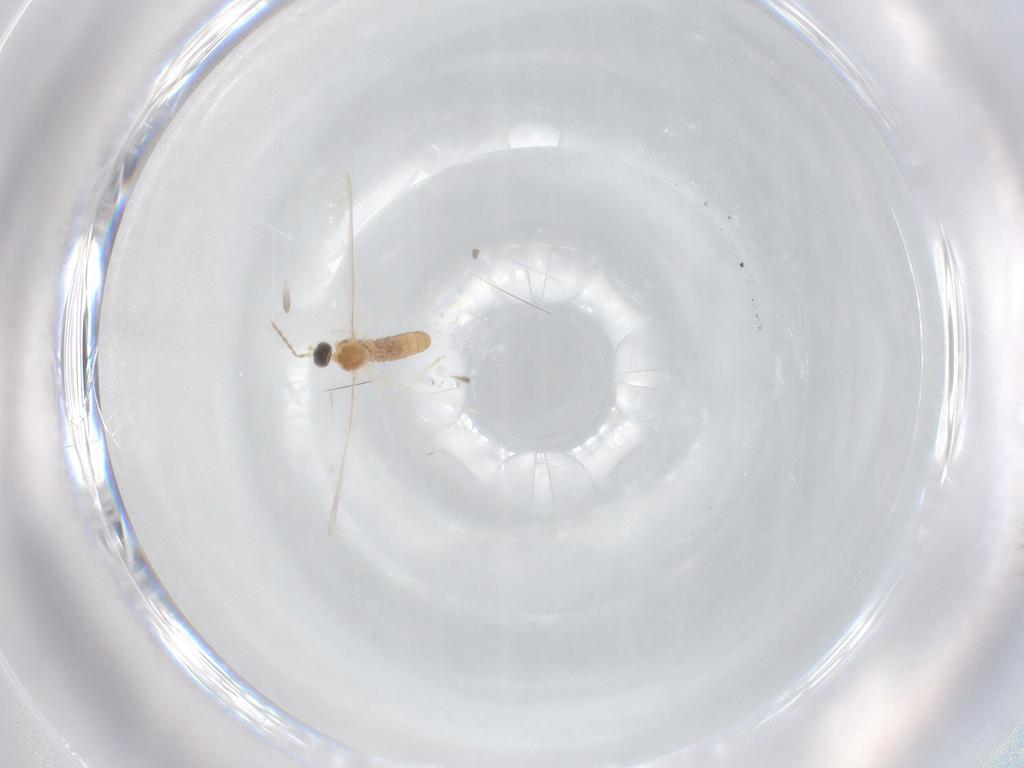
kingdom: Animalia
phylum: Arthropoda
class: Insecta
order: Diptera
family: Cecidomyiidae
